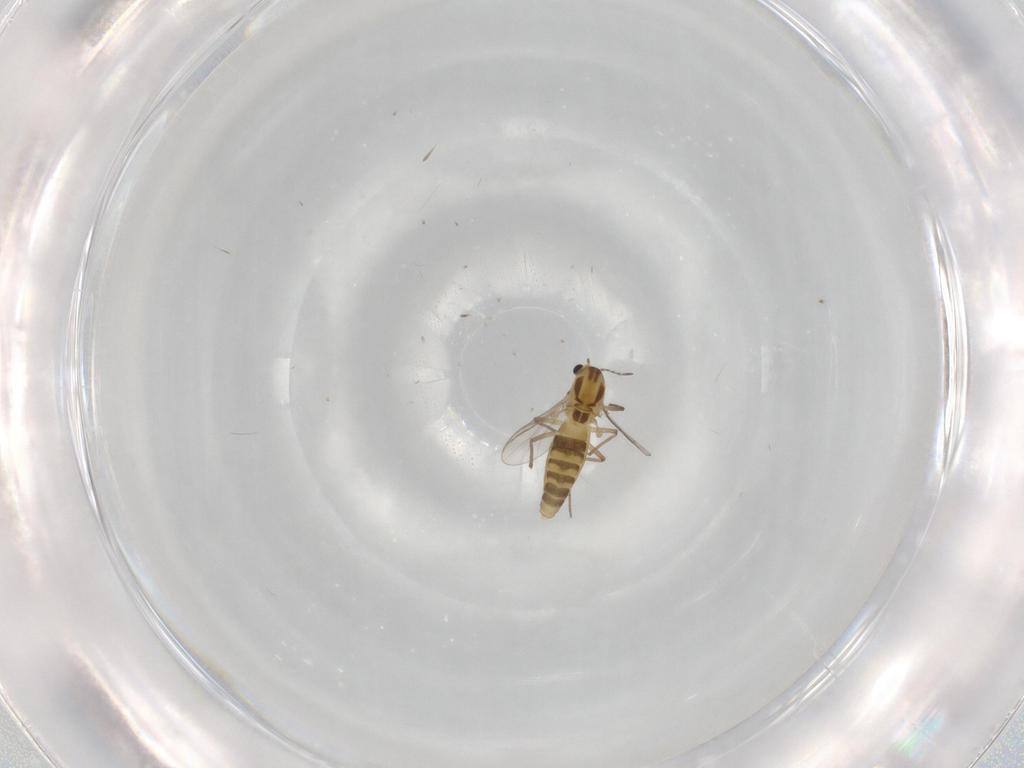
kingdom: Animalia
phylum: Arthropoda
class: Insecta
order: Diptera
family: Chironomidae
